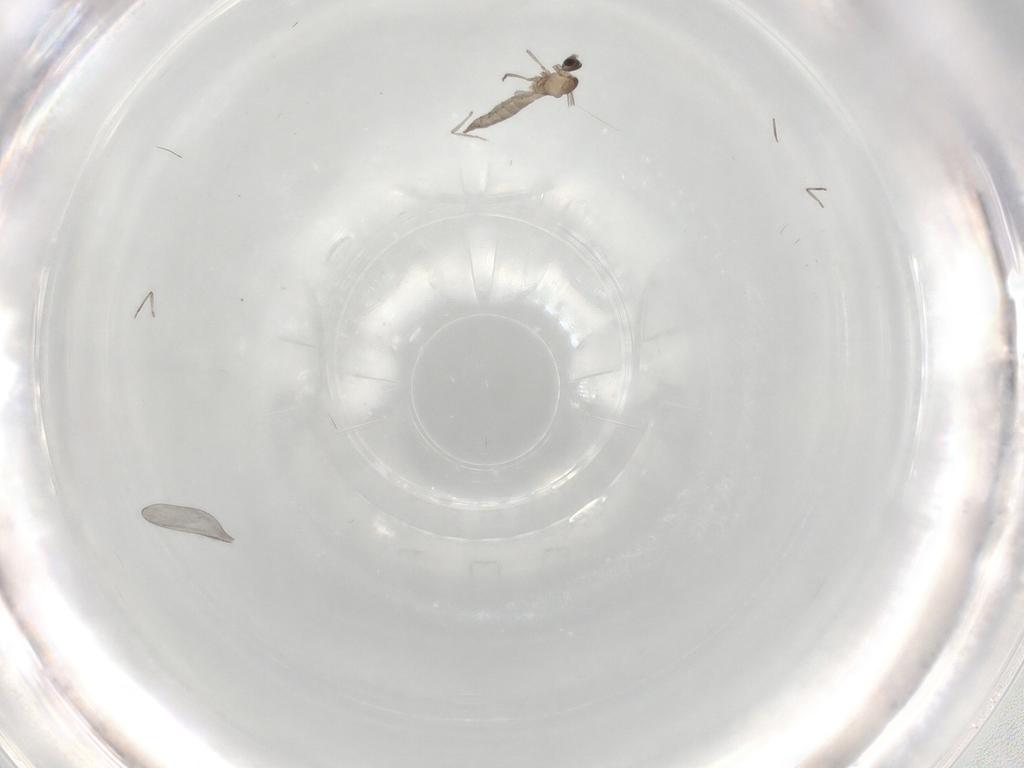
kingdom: Animalia
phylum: Arthropoda
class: Insecta
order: Diptera
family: Cecidomyiidae
